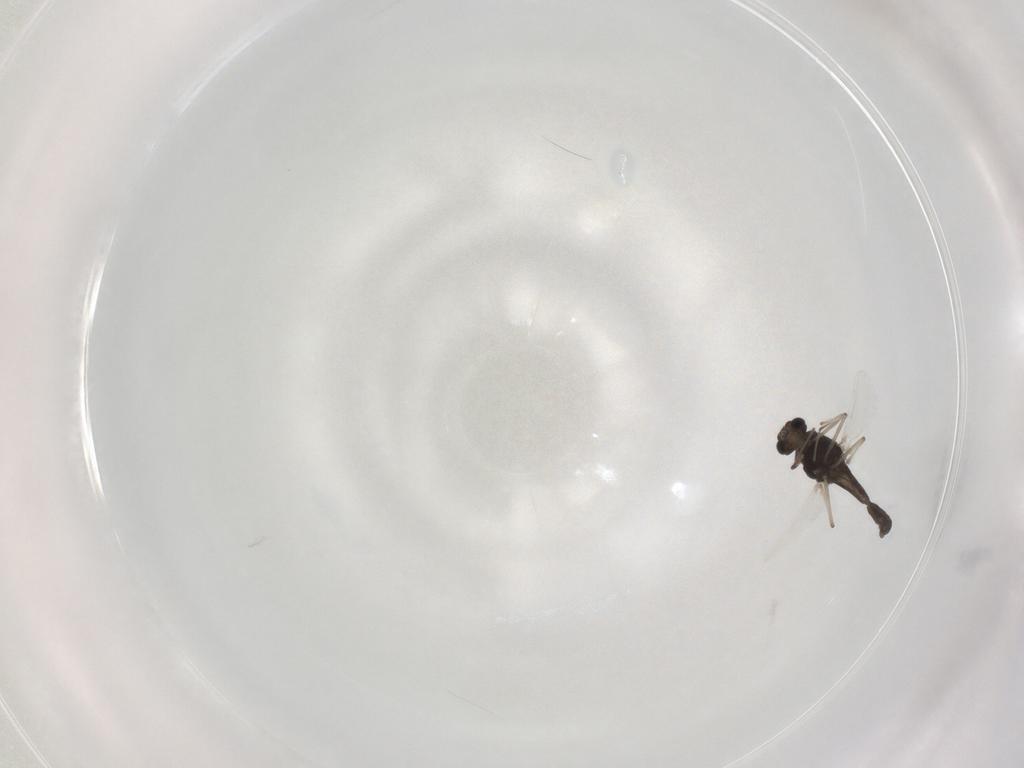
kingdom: Animalia
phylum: Arthropoda
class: Insecta
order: Diptera
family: Chironomidae
